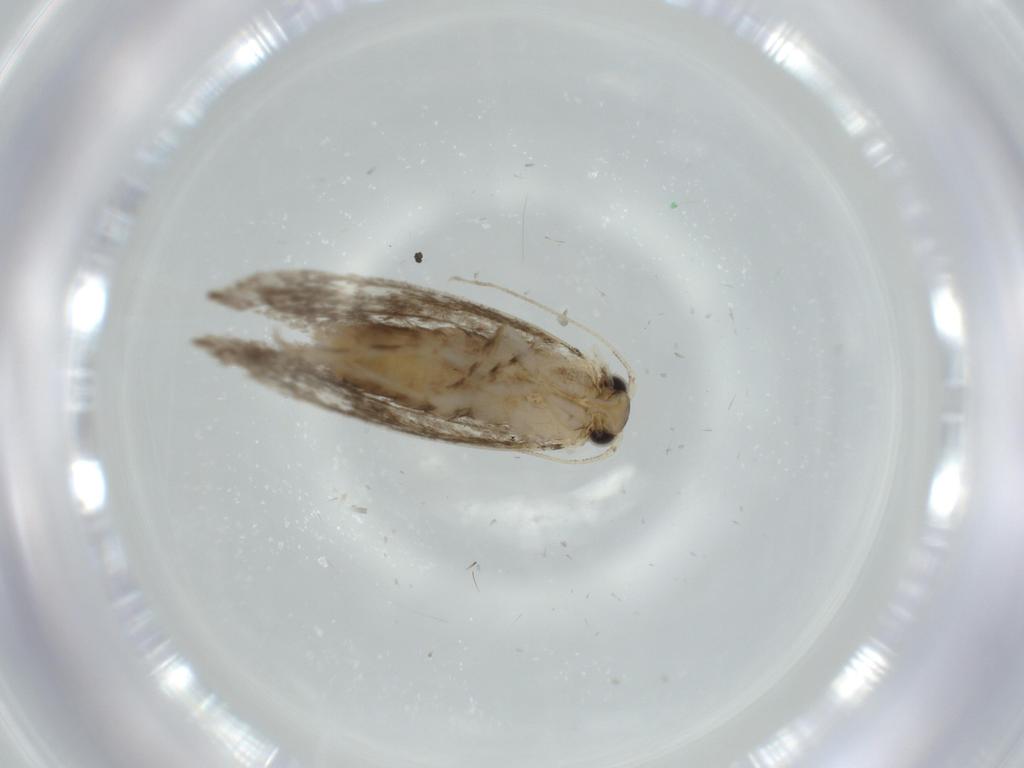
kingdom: Animalia
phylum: Arthropoda
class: Insecta
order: Lepidoptera
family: Tineidae
